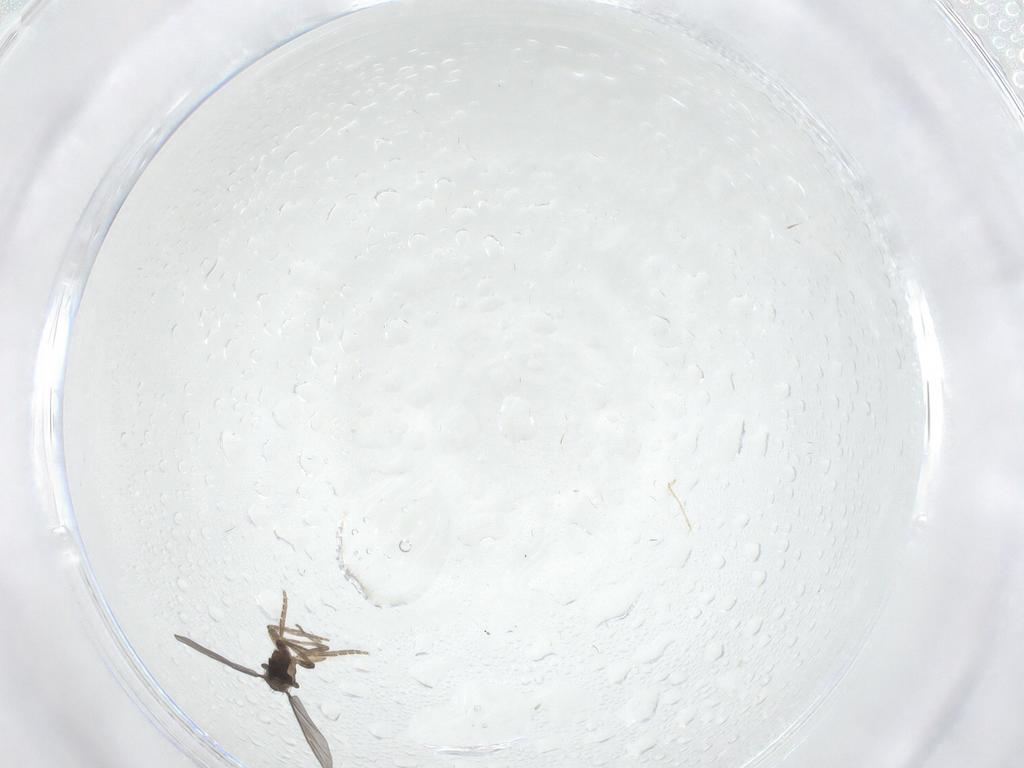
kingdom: Animalia
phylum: Arthropoda
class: Insecta
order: Diptera
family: Phoridae
